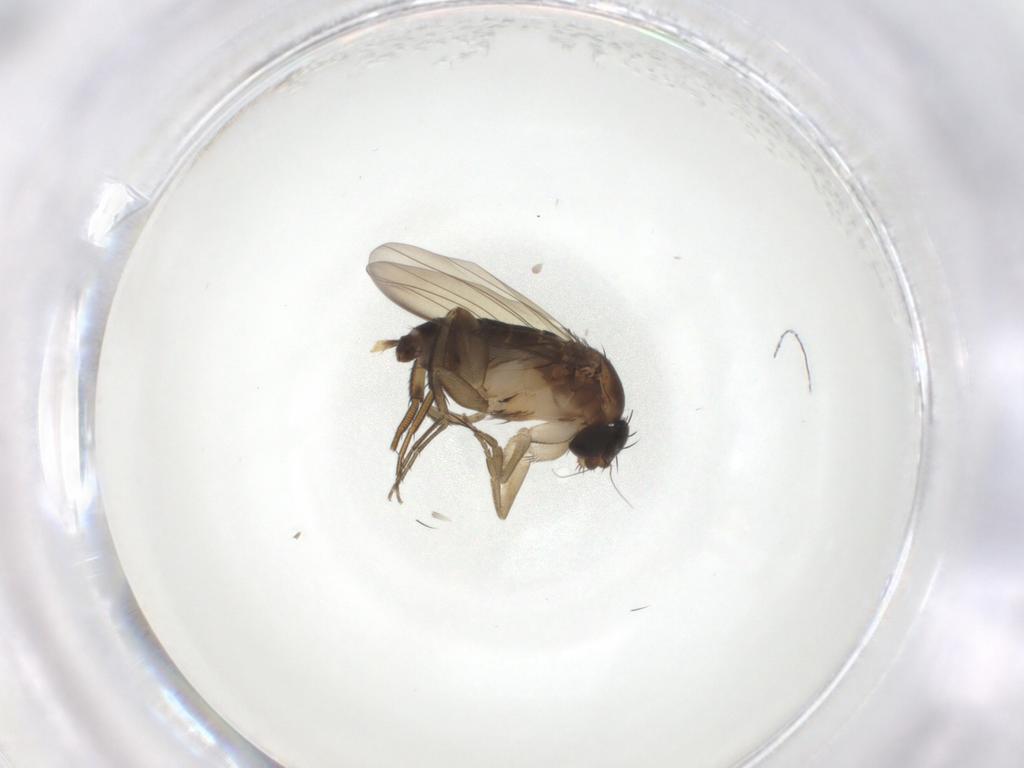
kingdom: Animalia
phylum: Arthropoda
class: Insecta
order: Diptera
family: Phoridae
